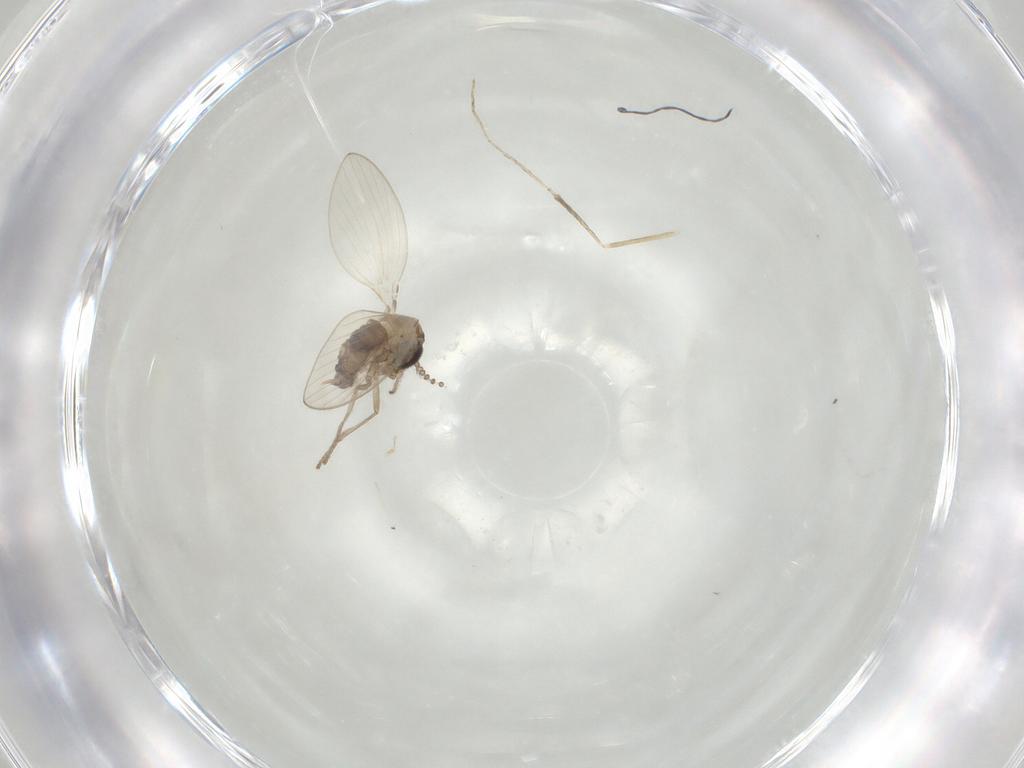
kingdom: Animalia
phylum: Arthropoda
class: Insecta
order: Diptera
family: Psychodidae
